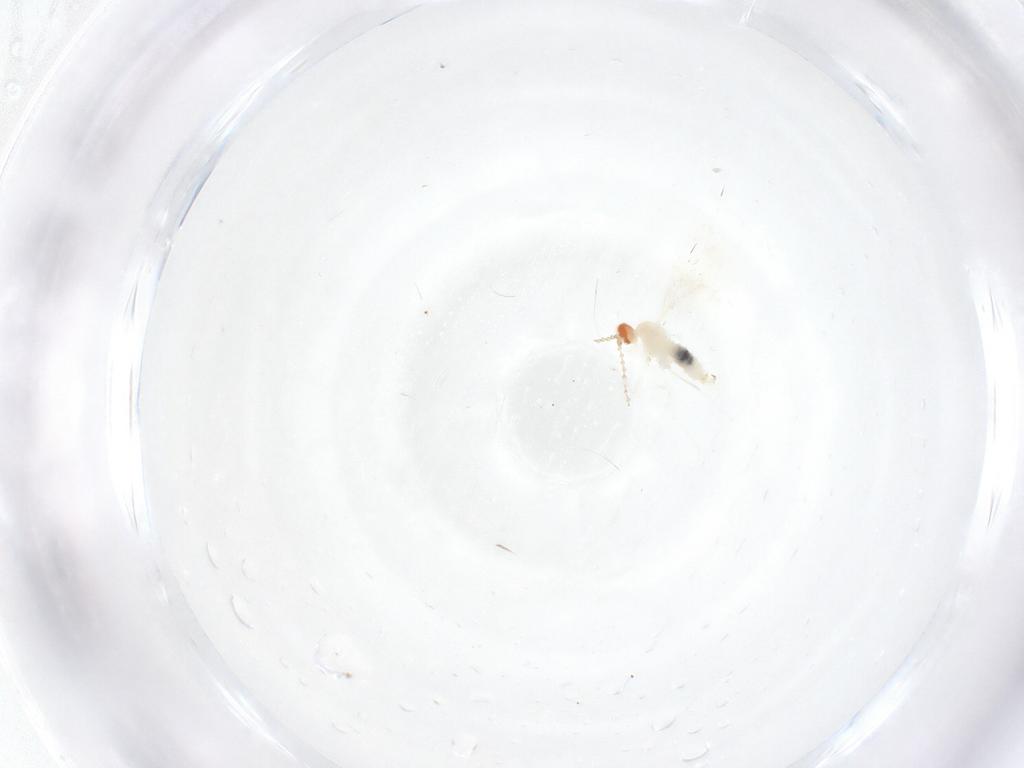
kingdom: Animalia
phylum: Arthropoda
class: Insecta
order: Diptera
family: Cecidomyiidae
